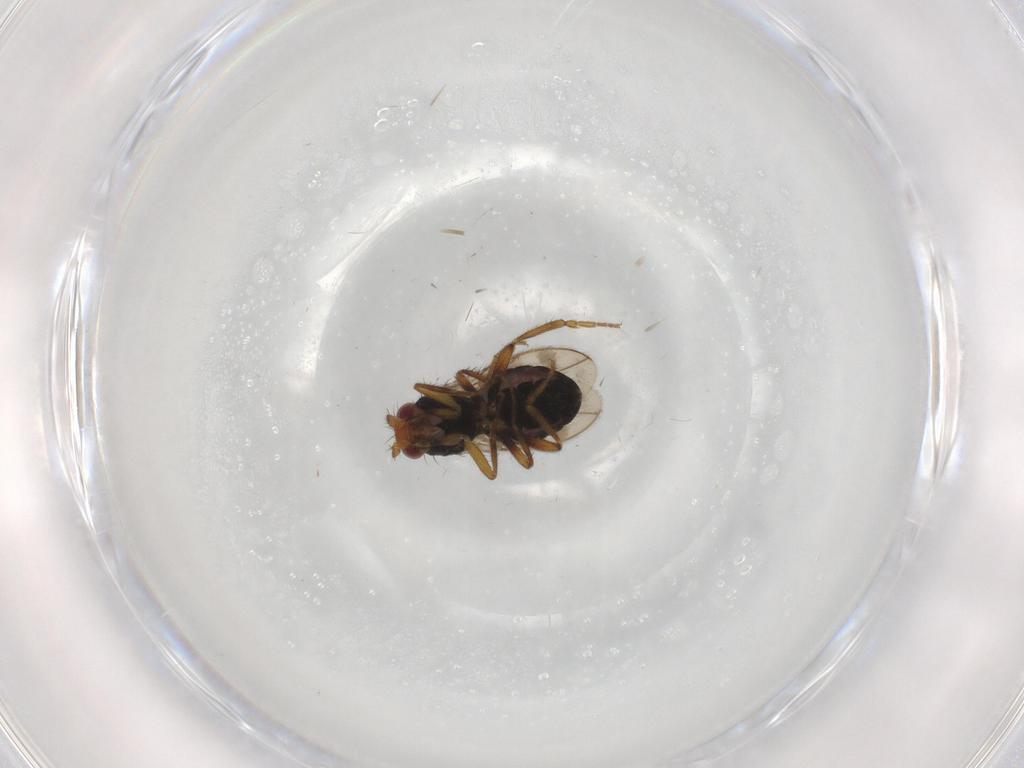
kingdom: Animalia
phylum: Arthropoda
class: Insecta
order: Diptera
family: Sphaeroceridae
